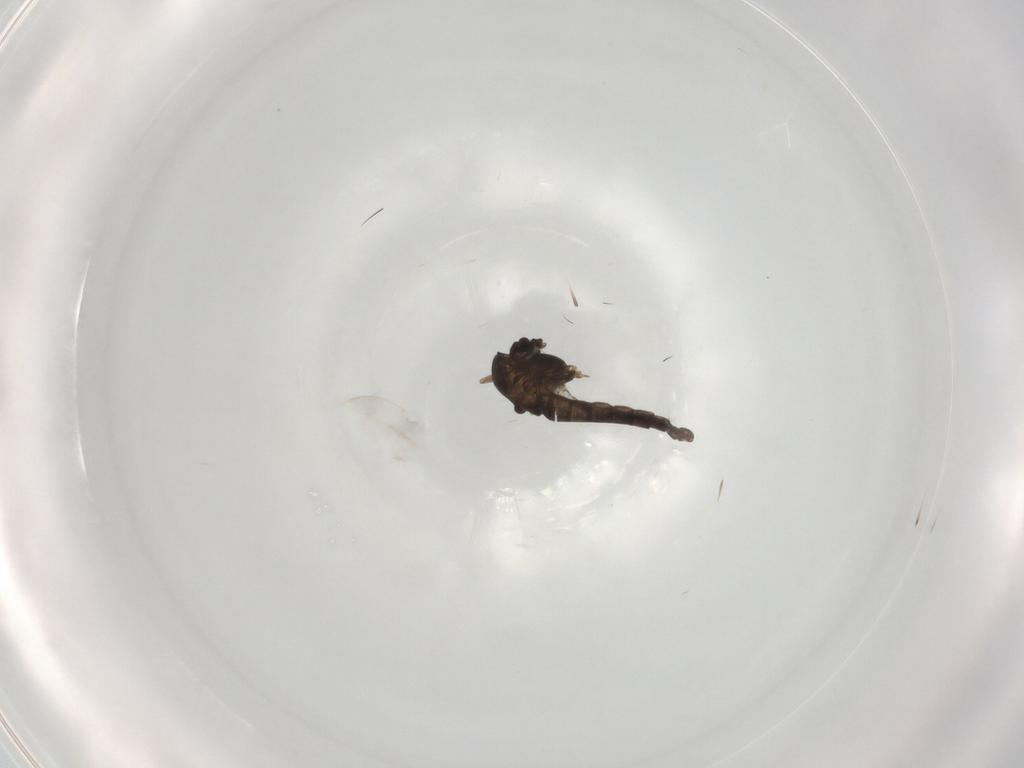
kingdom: Animalia
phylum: Arthropoda
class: Insecta
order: Diptera
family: Chironomidae
